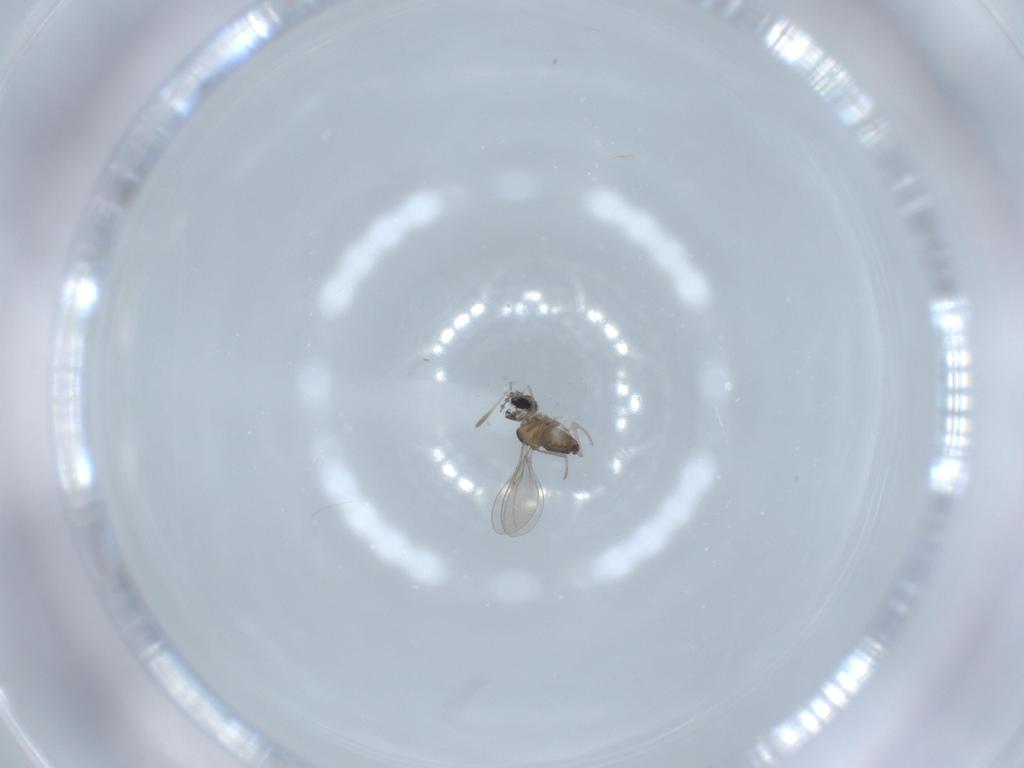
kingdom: Animalia
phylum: Arthropoda
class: Insecta
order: Diptera
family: Cecidomyiidae
